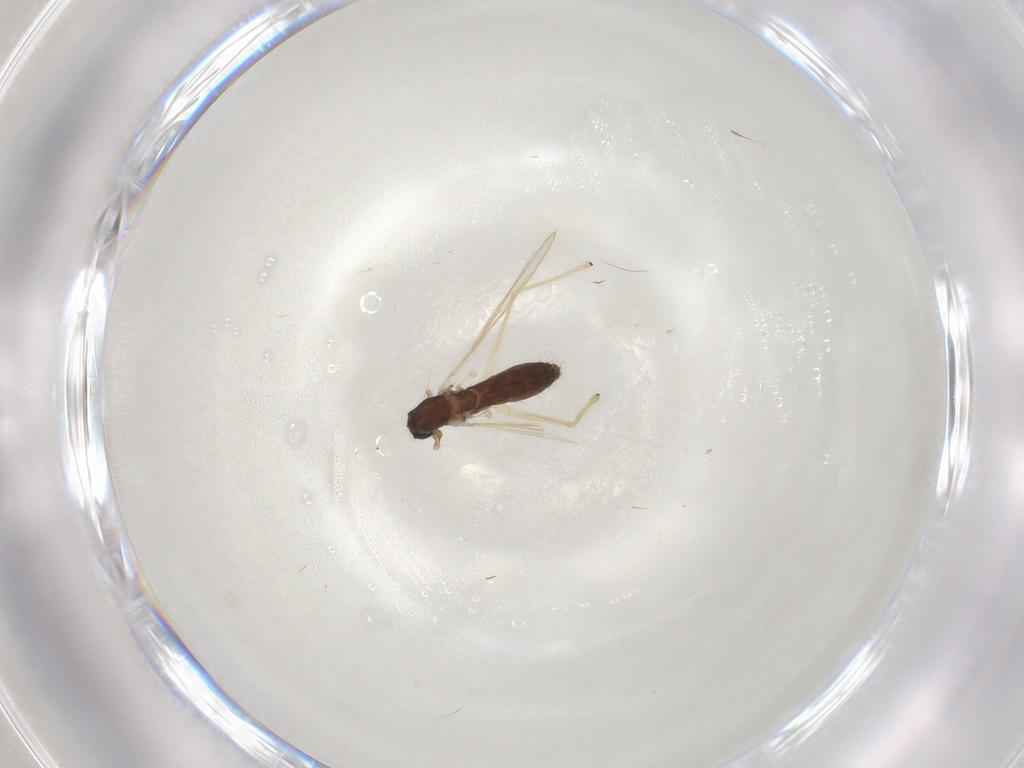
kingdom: Animalia
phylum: Arthropoda
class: Insecta
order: Diptera
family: Chironomidae
